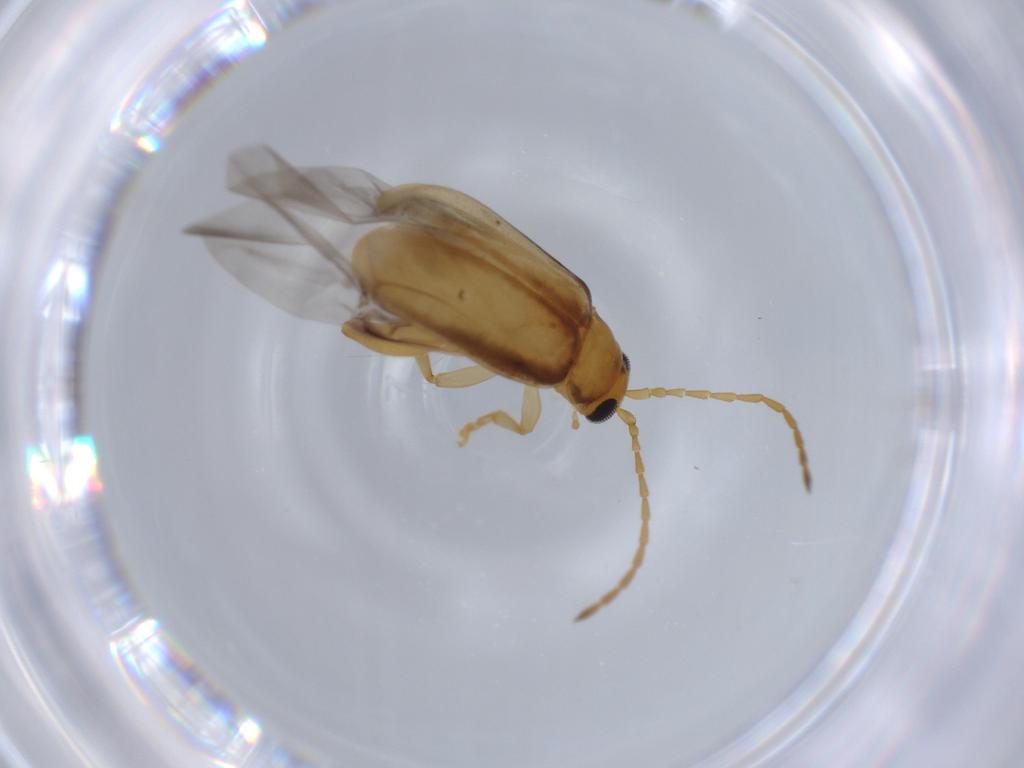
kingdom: Animalia
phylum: Arthropoda
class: Insecta
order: Coleoptera
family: Chrysomelidae
